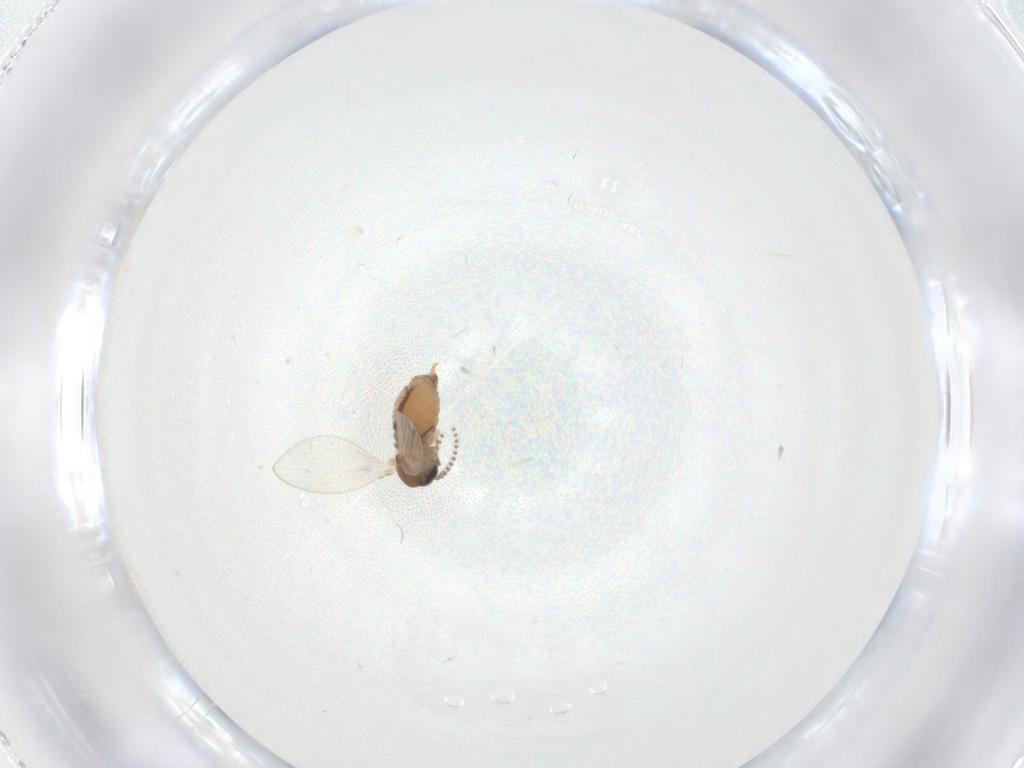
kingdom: Animalia
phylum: Arthropoda
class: Insecta
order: Diptera
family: Psychodidae
